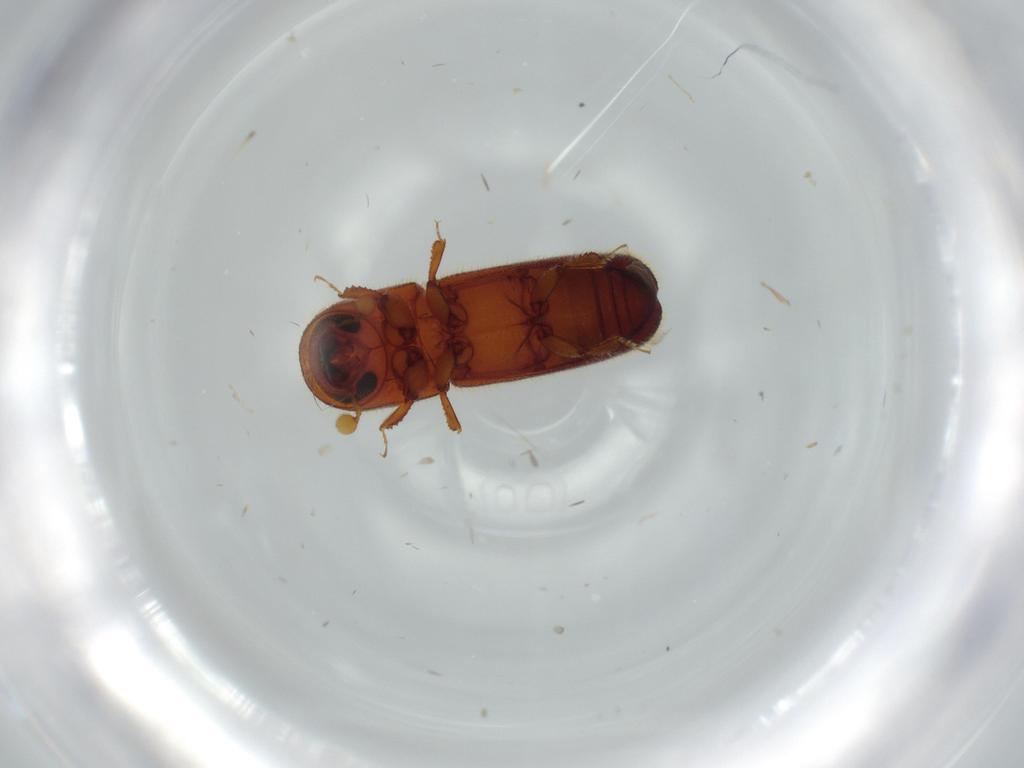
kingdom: Animalia
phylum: Arthropoda
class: Insecta
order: Coleoptera
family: Curculionidae
